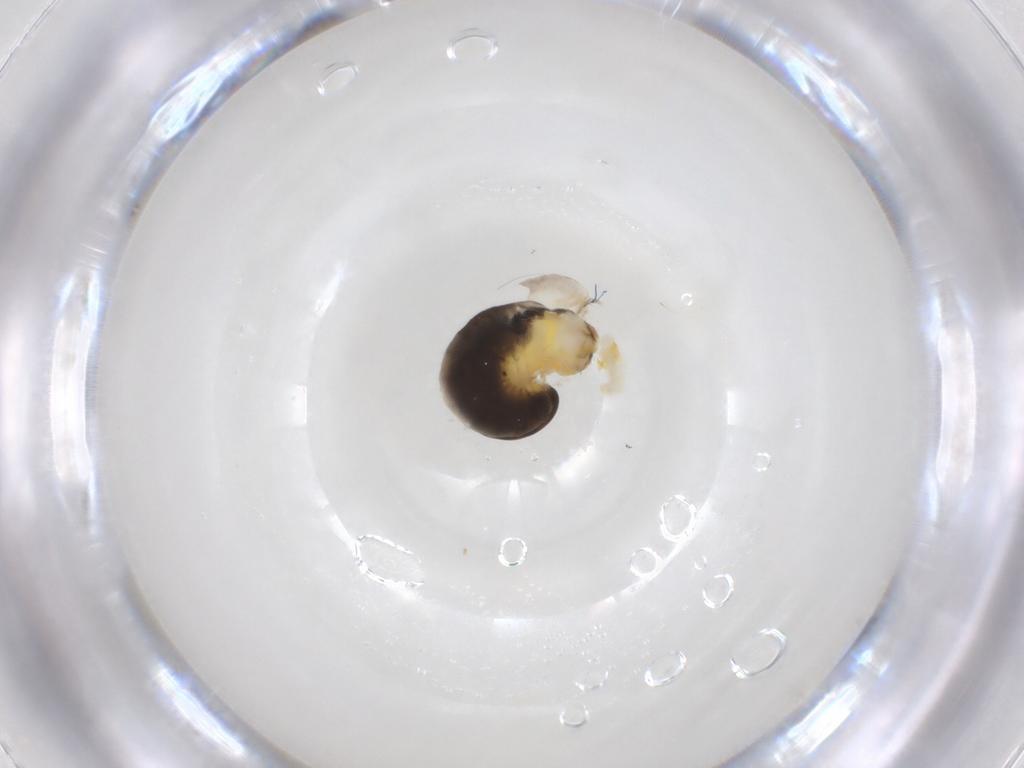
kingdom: Animalia
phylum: Arthropoda
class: Insecta
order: Hymenoptera
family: Dryinidae
